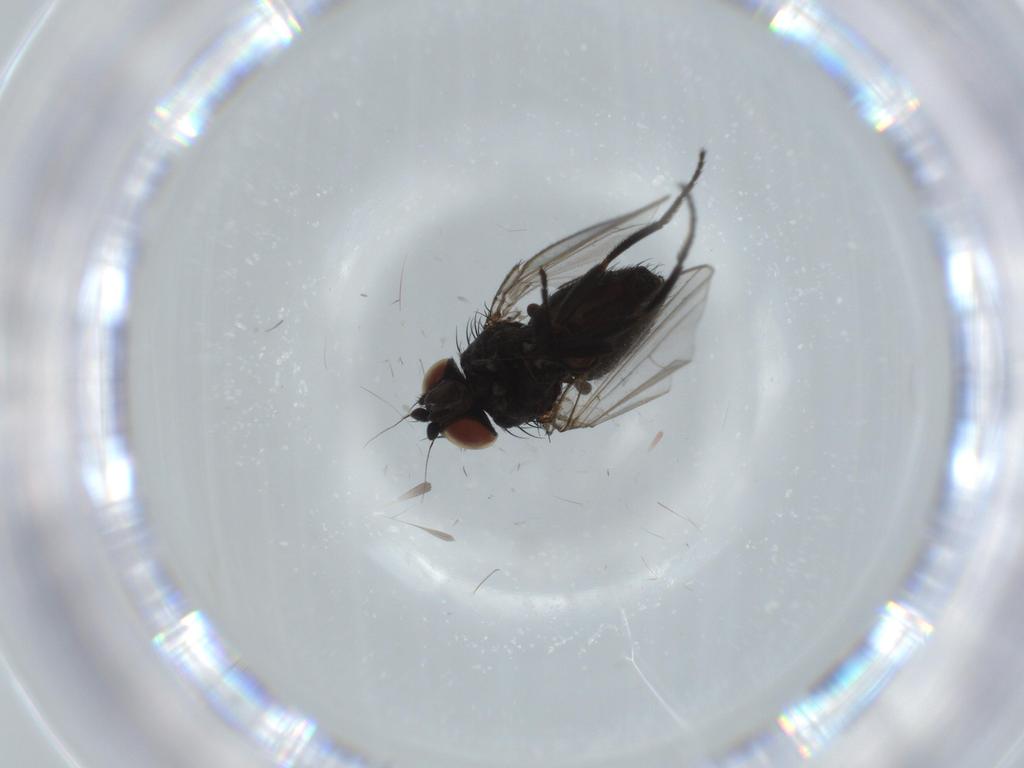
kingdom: Animalia
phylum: Arthropoda
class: Insecta
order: Diptera
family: Milichiidae
